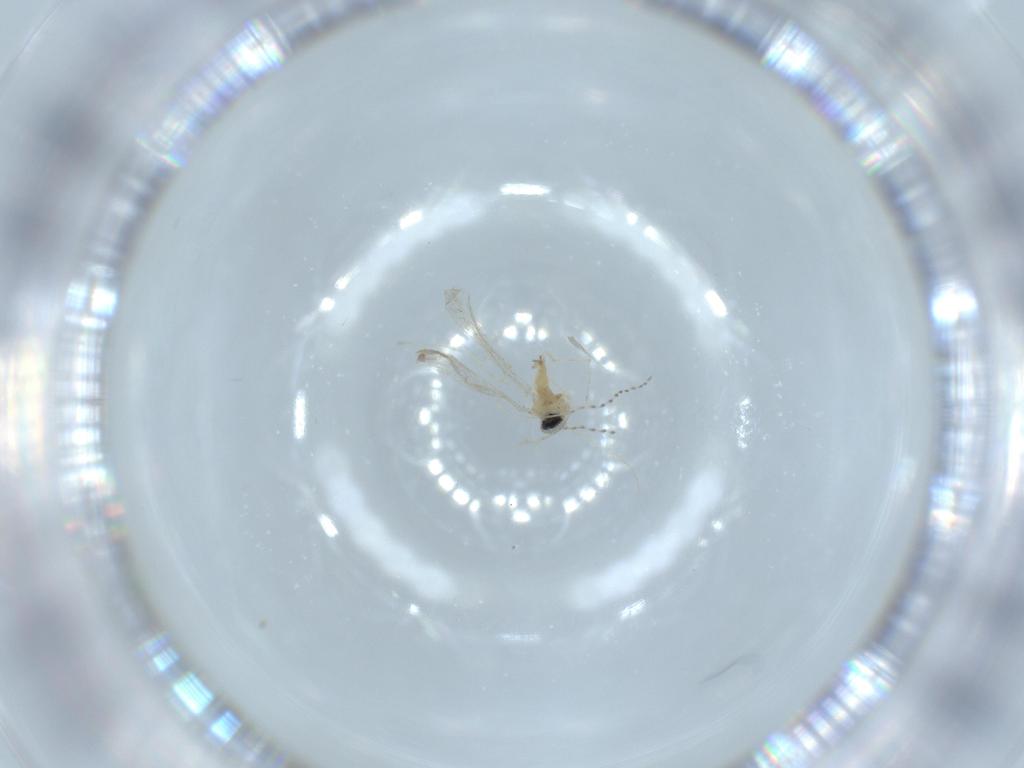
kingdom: Animalia
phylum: Arthropoda
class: Insecta
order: Diptera
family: Cecidomyiidae
